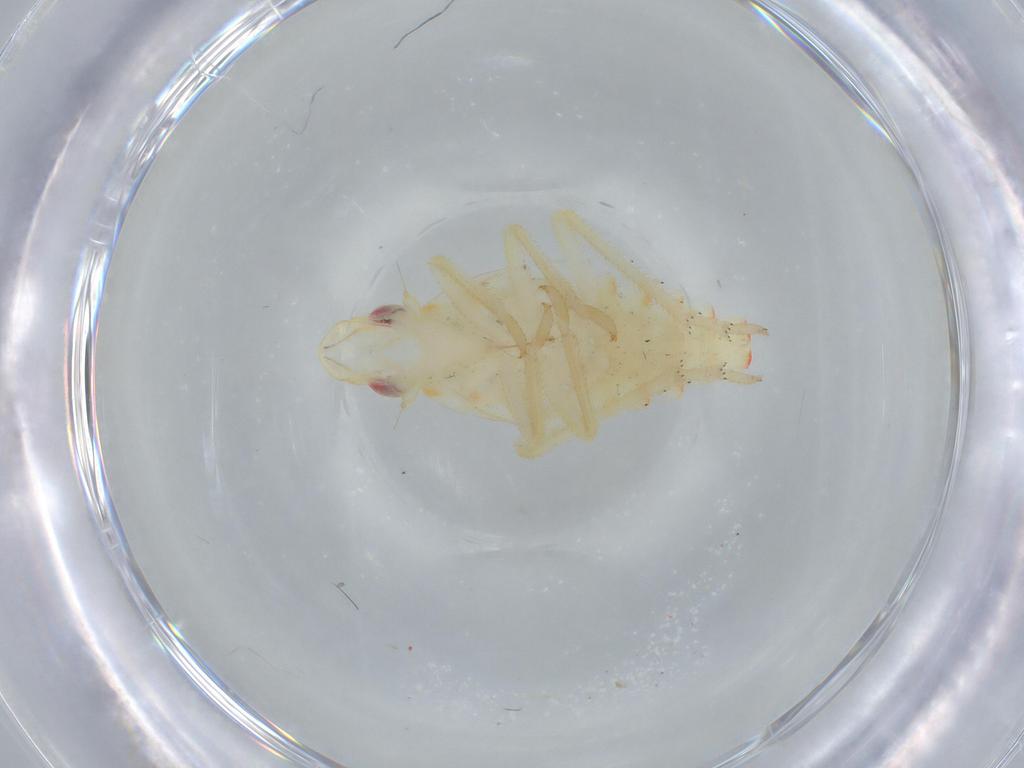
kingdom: Animalia
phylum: Arthropoda
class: Insecta
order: Hemiptera
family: Tropiduchidae
